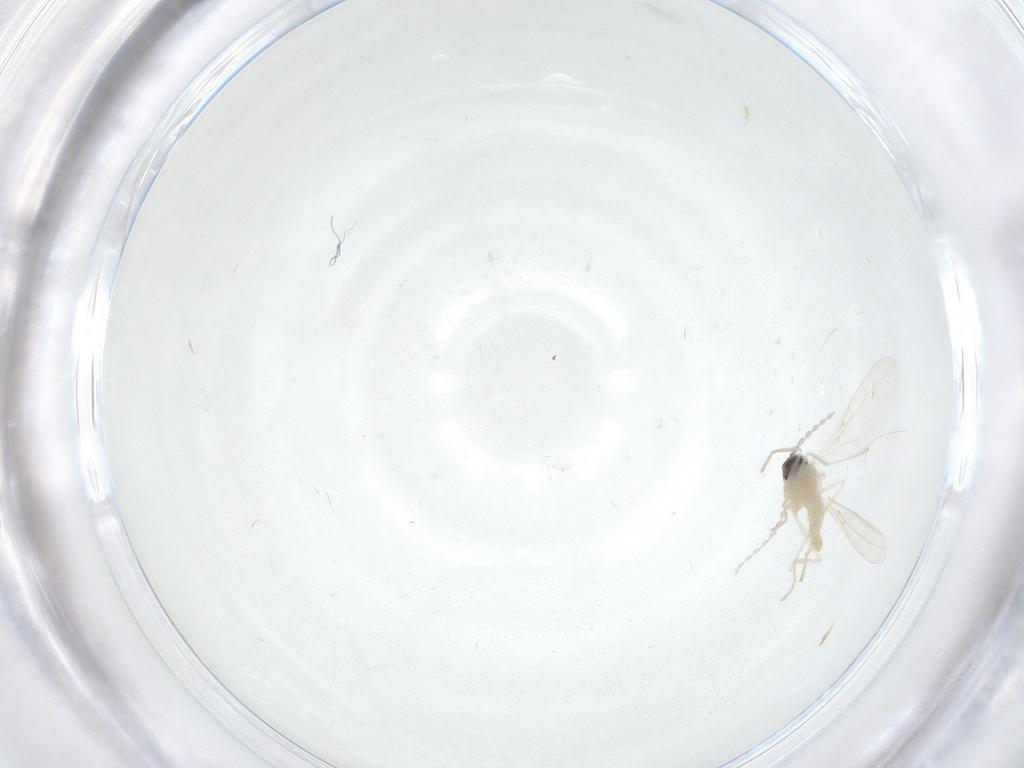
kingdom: Animalia
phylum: Arthropoda
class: Insecta
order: Diptera
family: Cecidomyiidae
